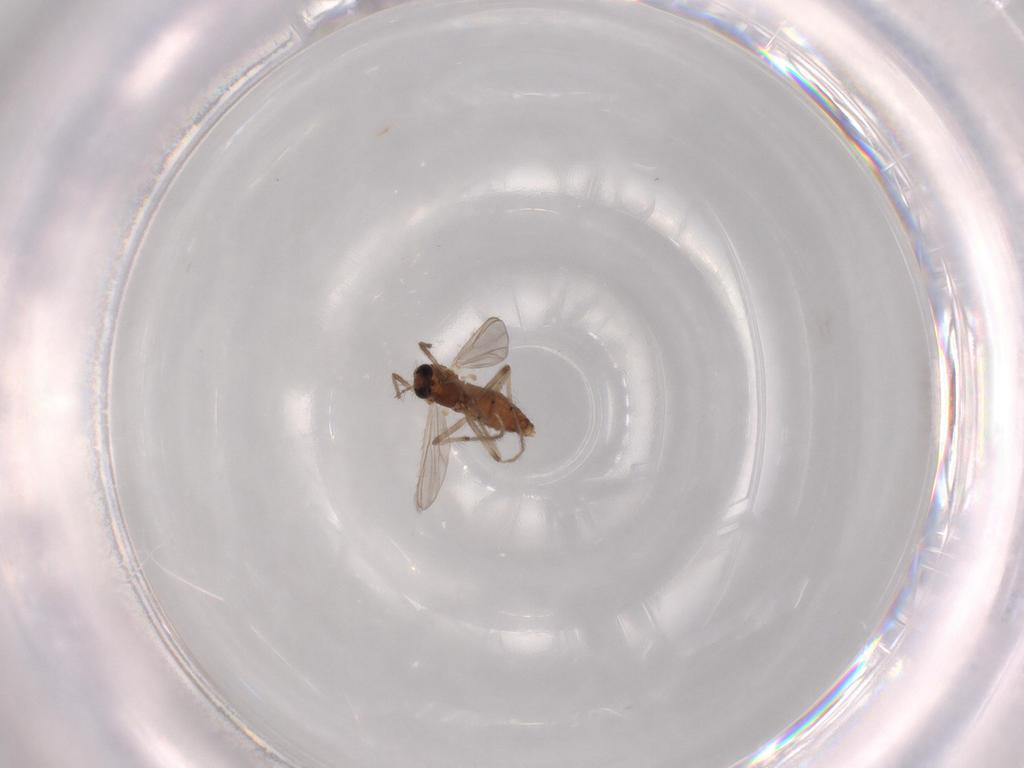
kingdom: Animalia
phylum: Arthropoda
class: Insecta
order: Diptera
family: Chironomidae
